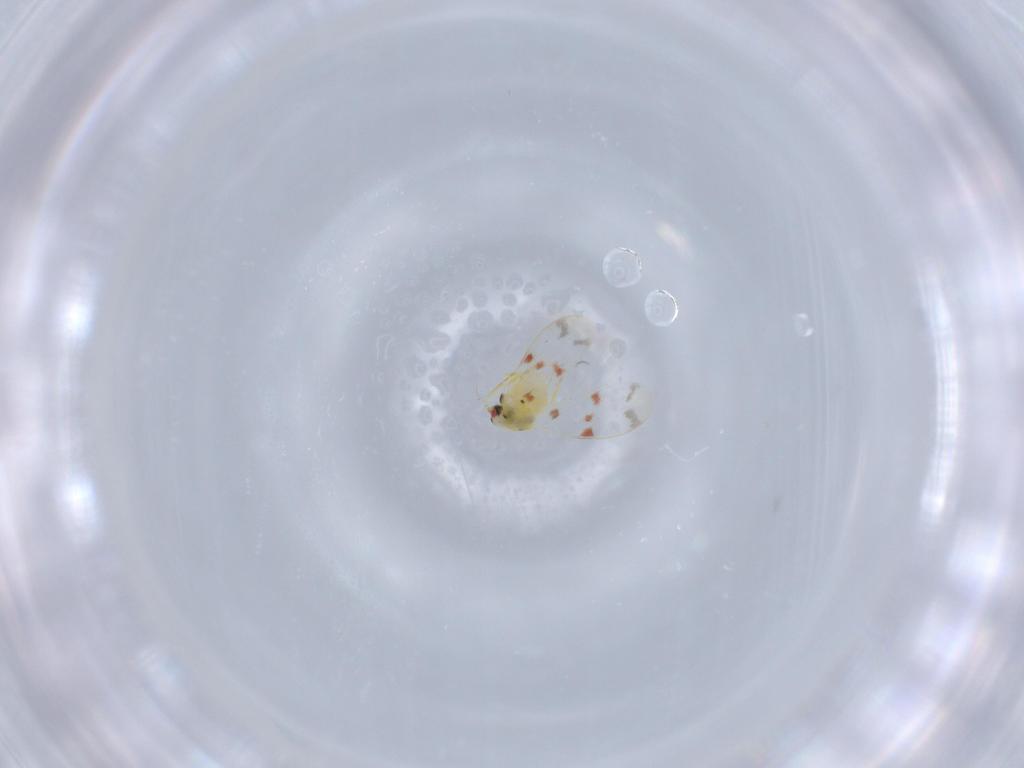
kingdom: Animalia
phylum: Arthropoda
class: Insecta
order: Hemiptera
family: Aleyrodidae
